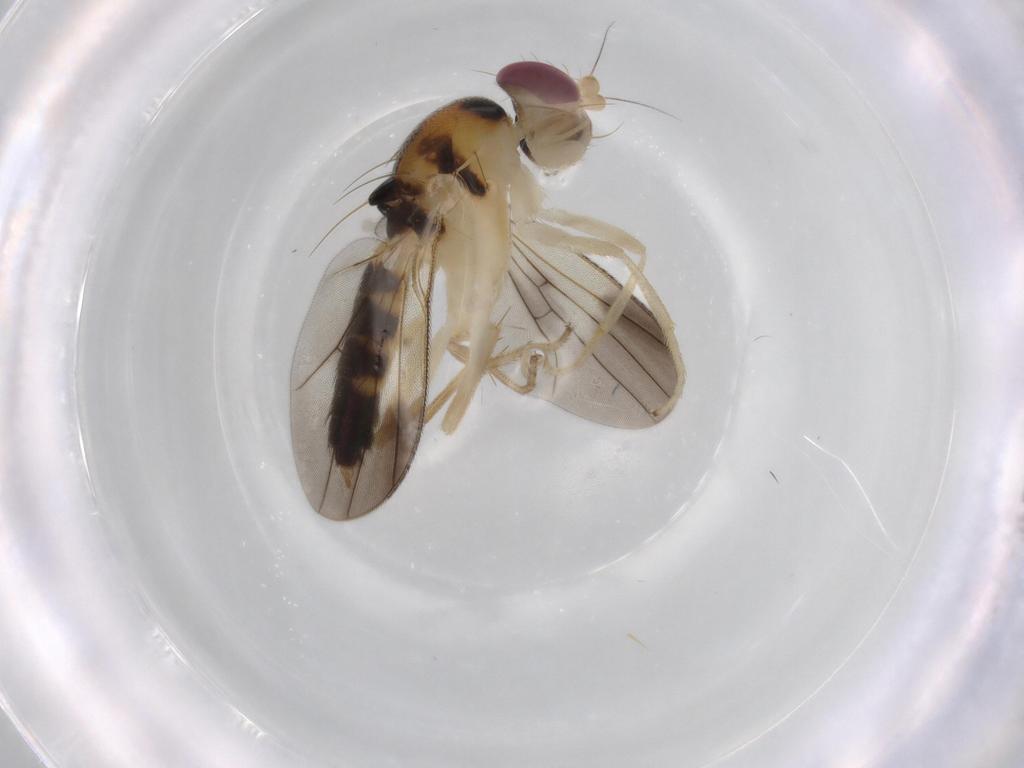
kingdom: Animalia
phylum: Arthropoda
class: Insecta
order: Diptera
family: Clusiidae
